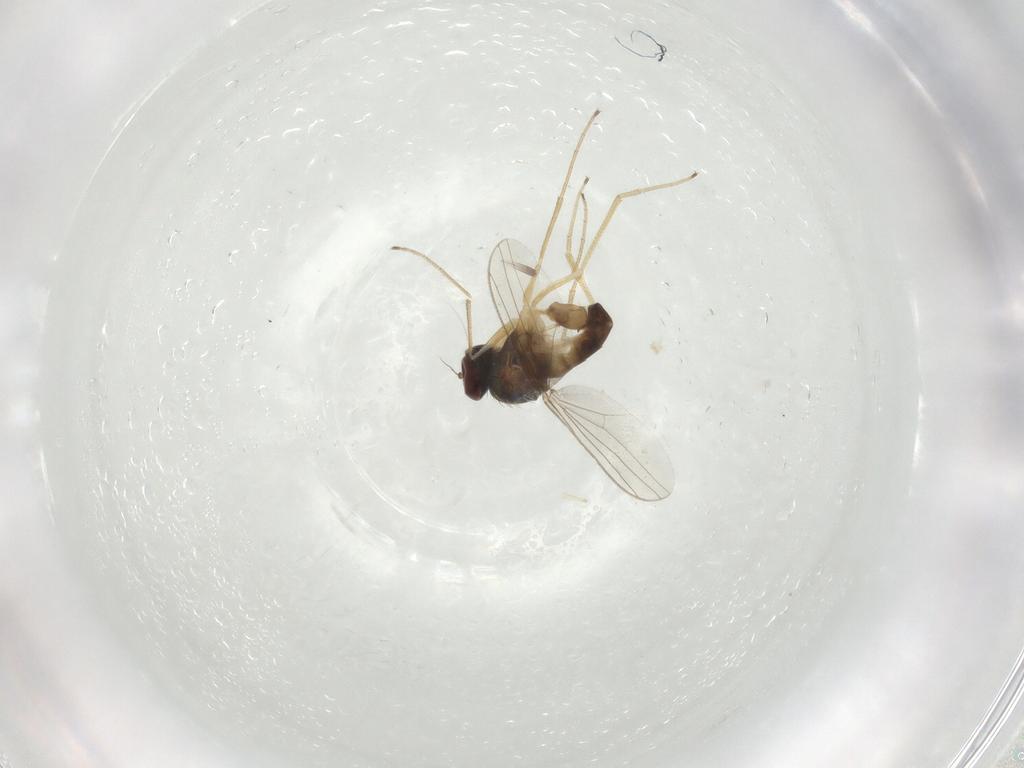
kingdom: Animalia
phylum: Arthropoda
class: Insecta
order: Diptera
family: Dolichopodidae
